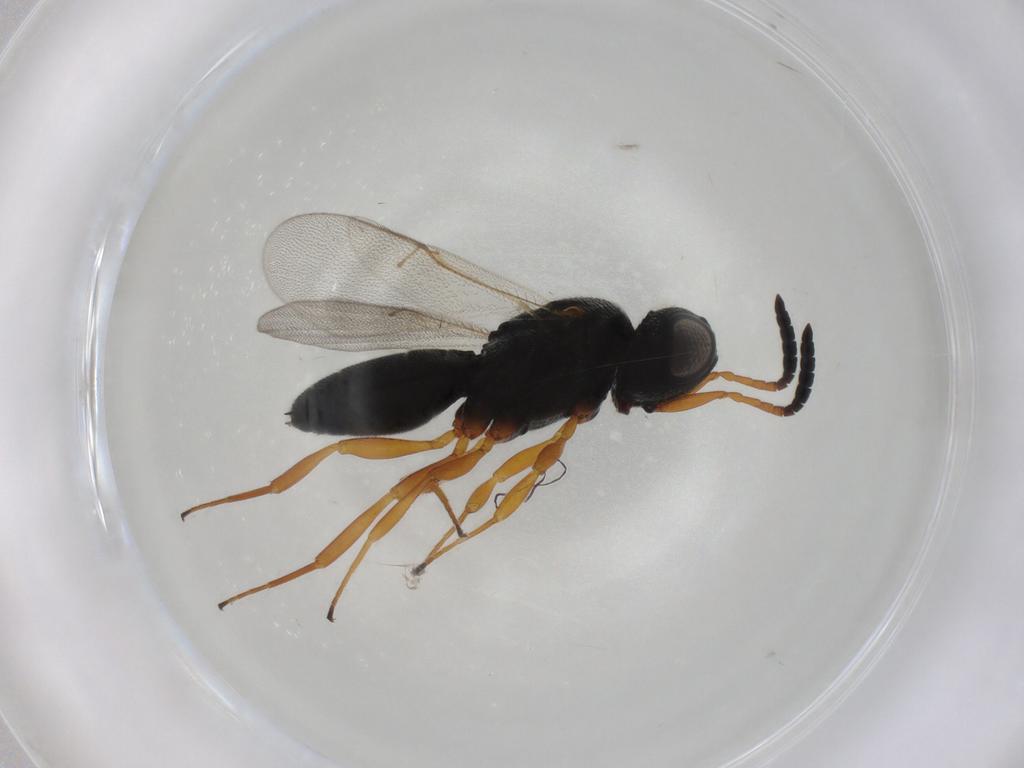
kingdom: Animalia
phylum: Arthropoda
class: Insecta
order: Hymenoptera
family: Scelionidae
